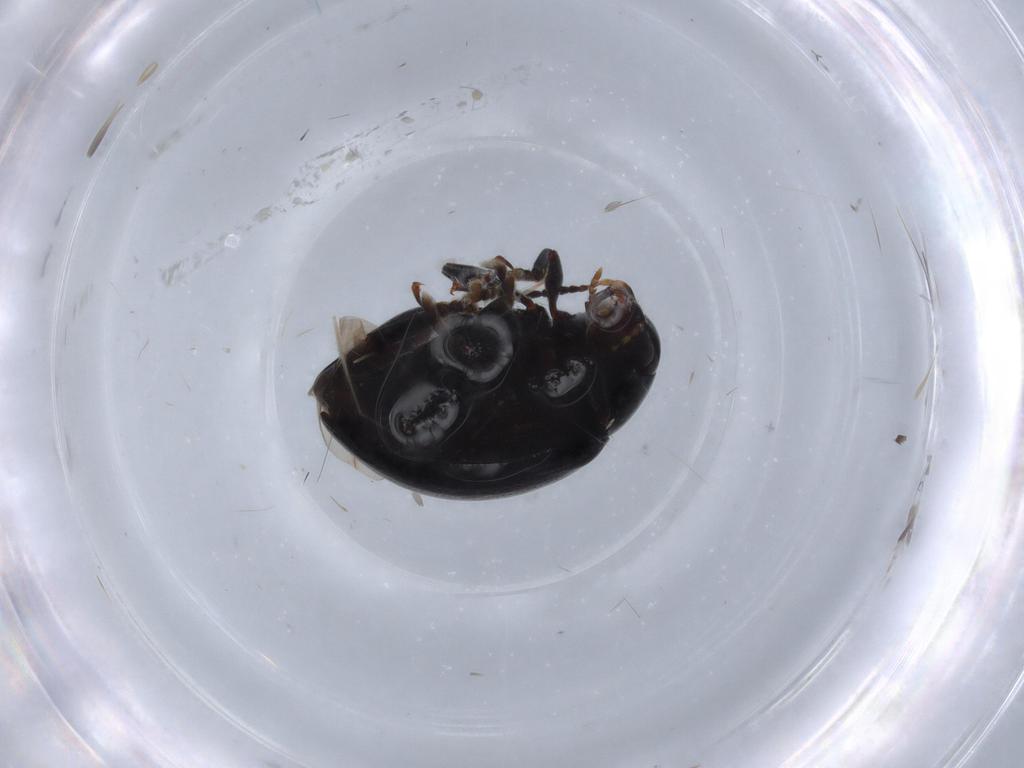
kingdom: Animalia
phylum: Arthropoda
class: Insecta
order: Coleoptera
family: Chrysomelidae
